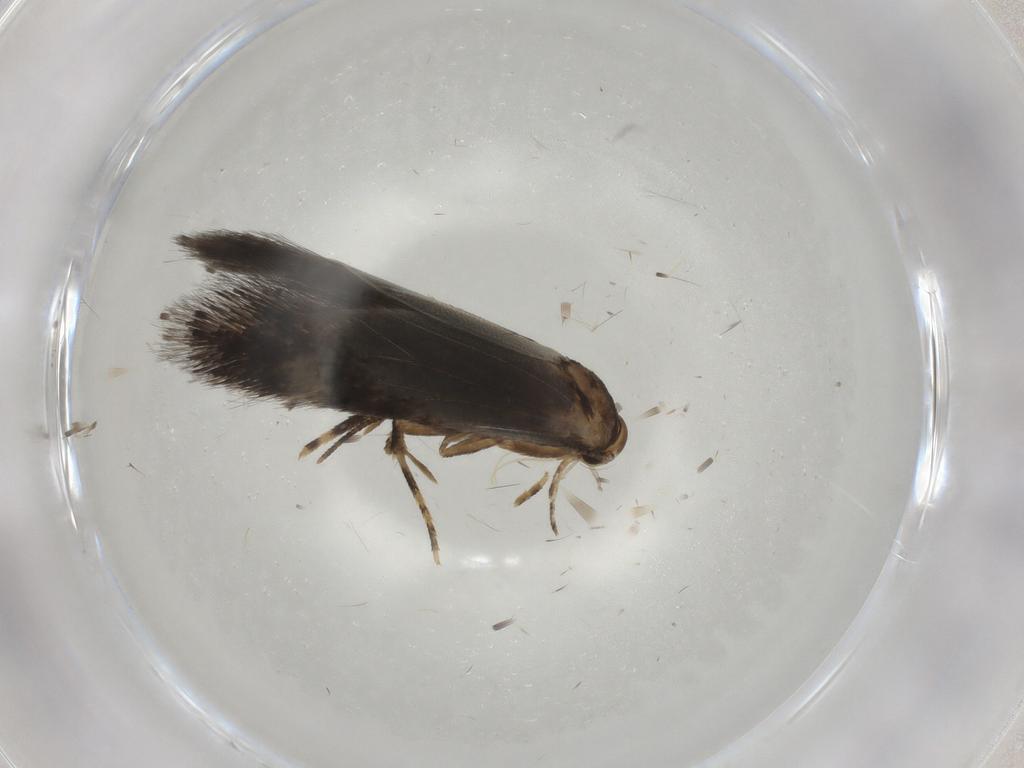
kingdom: Animalia
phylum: Arthropoda
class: Insecta
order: Lepidoptera
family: Elachistidae
